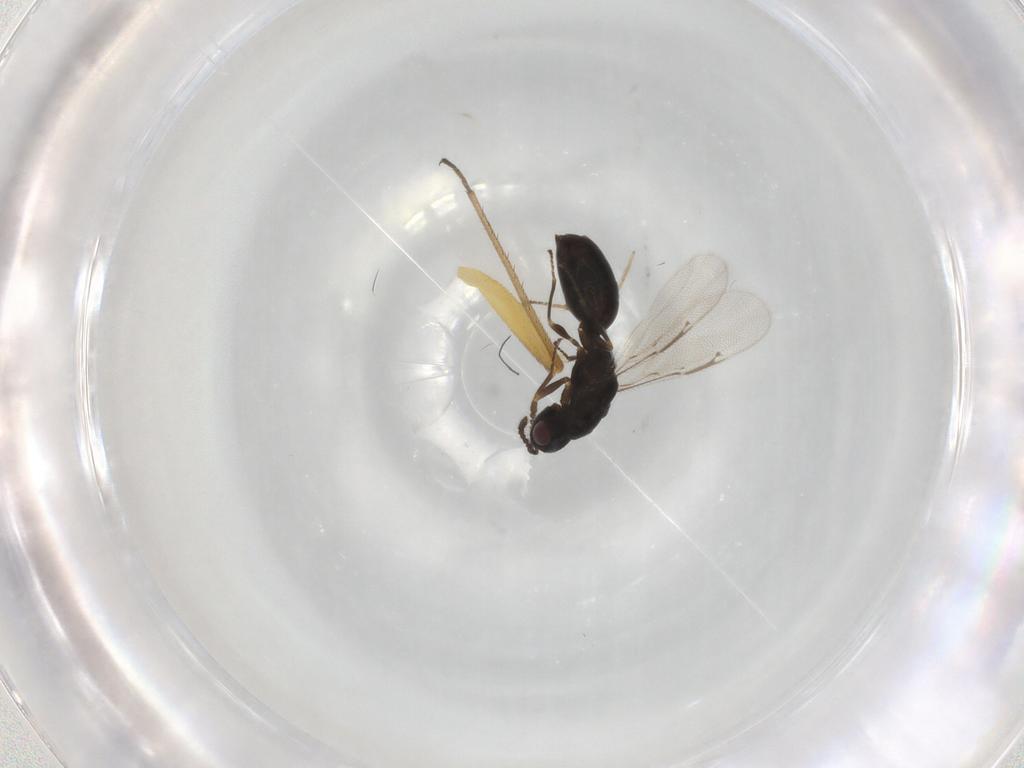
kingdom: Animalia
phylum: Arthropoda
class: Insecta
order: Hymenoptera
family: Eurytomidae
